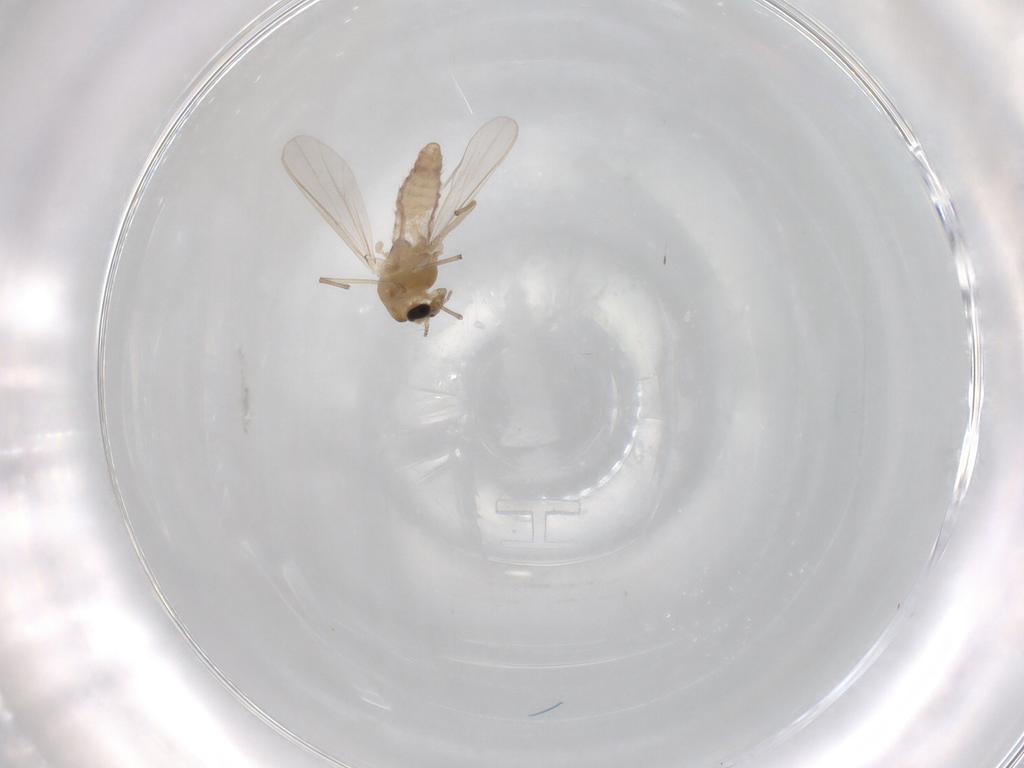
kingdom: Animalia
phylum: Arthropoda
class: Insecta
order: Diptera
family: Chironomidae
